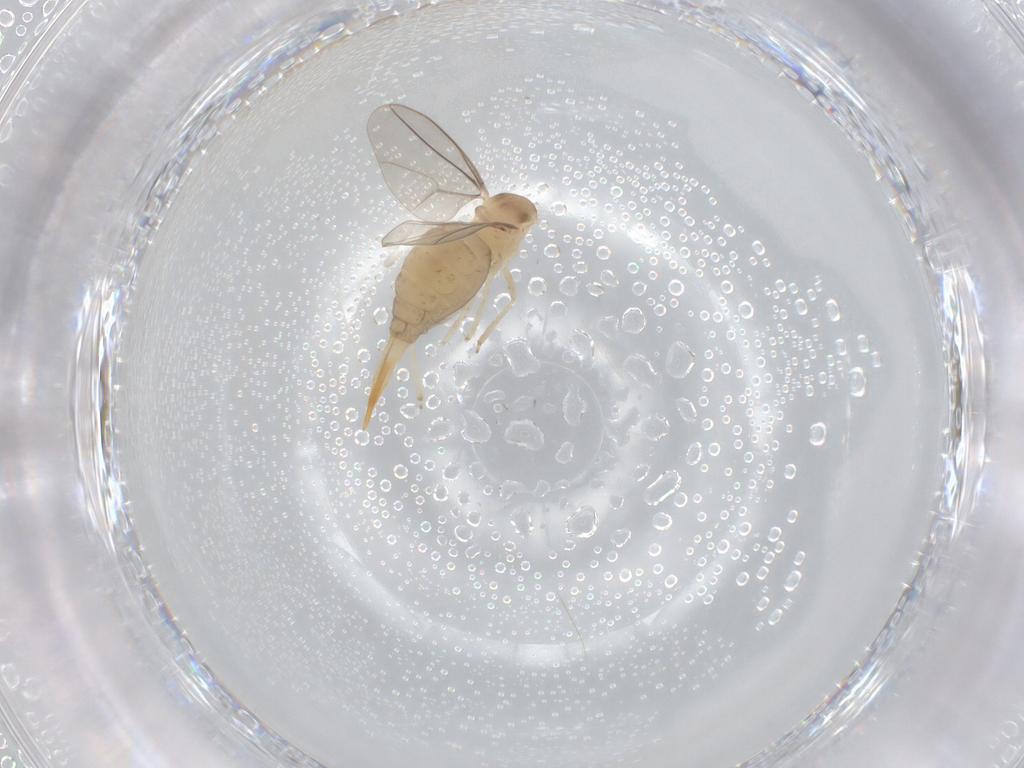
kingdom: Animalia
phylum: Arthropoda
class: Insecta
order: Diptera
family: Cecidomyiidae
